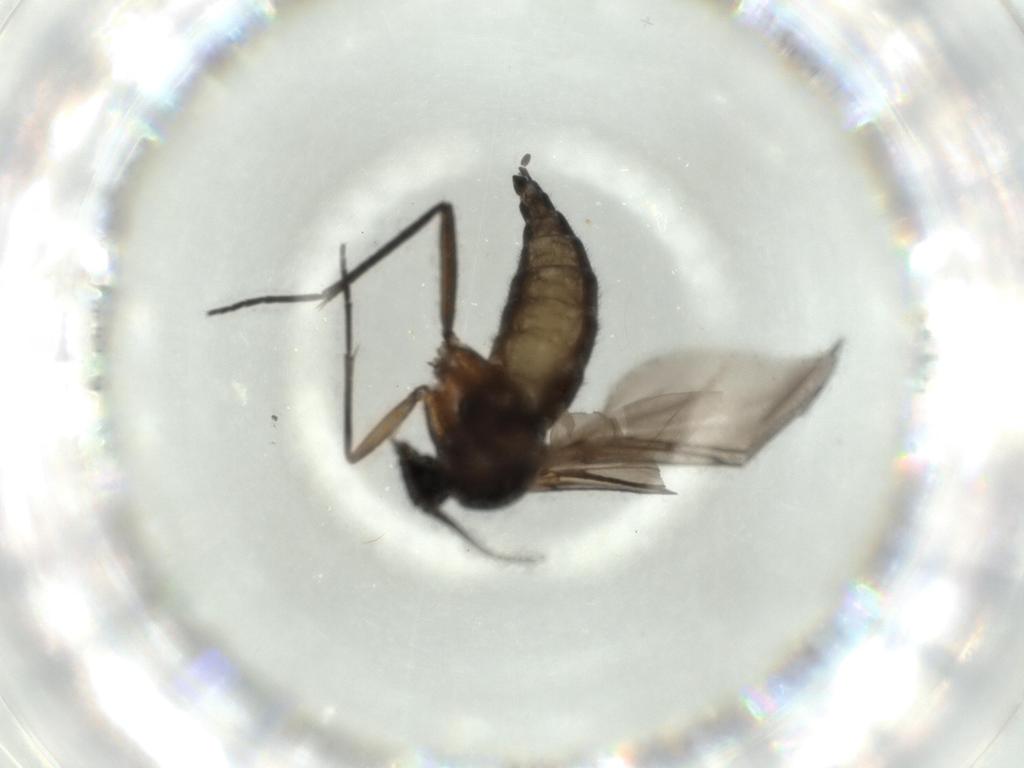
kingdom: Animalia
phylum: Arthropoda
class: Insecta
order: Diptera
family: Sciaridae
